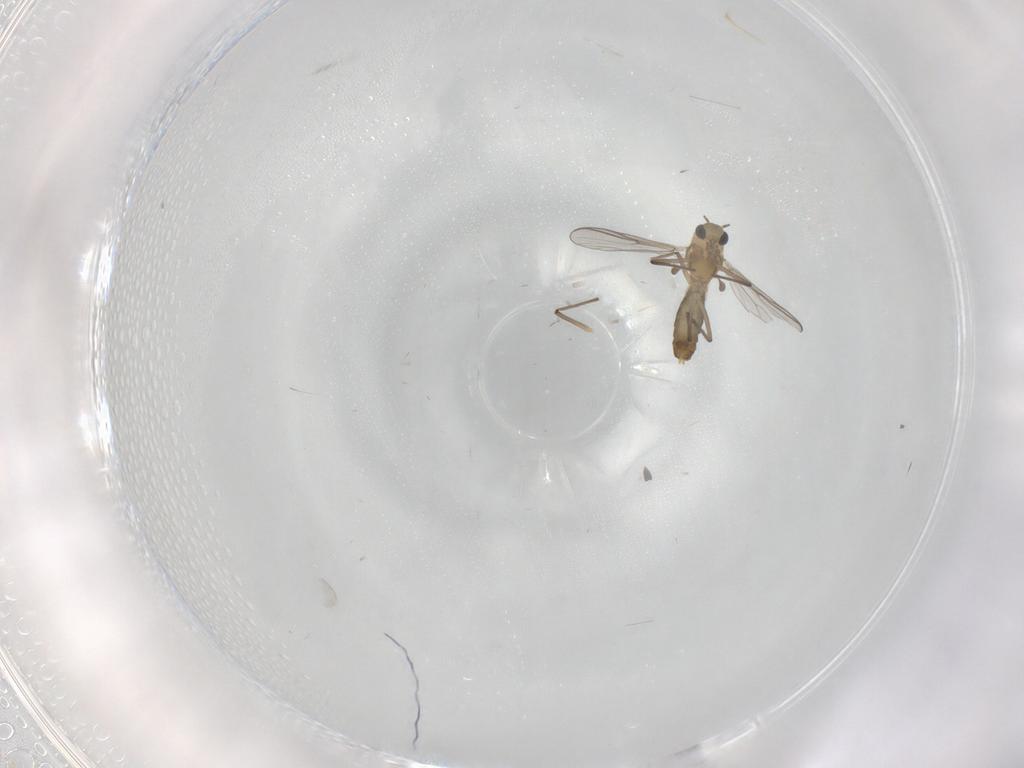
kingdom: Animalia
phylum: Arthropoda
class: Insecta
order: Diptera
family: Chironomidae
